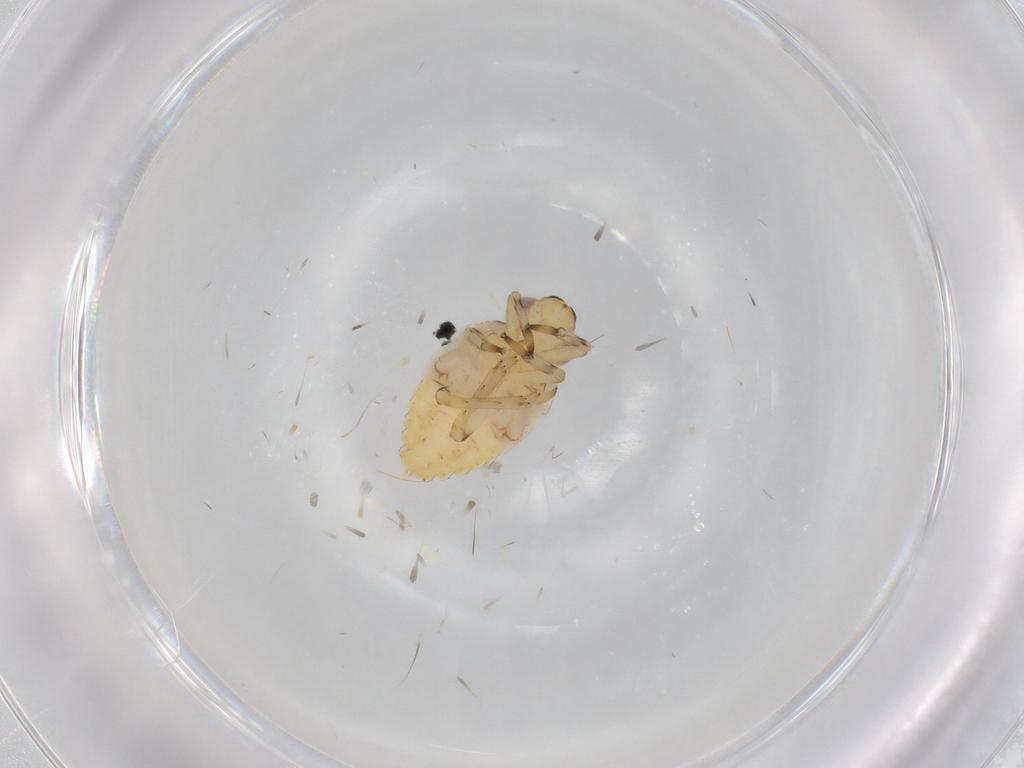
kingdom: Animalia
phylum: Arthropoda
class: Insecta
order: Hemiptera
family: Issidae
